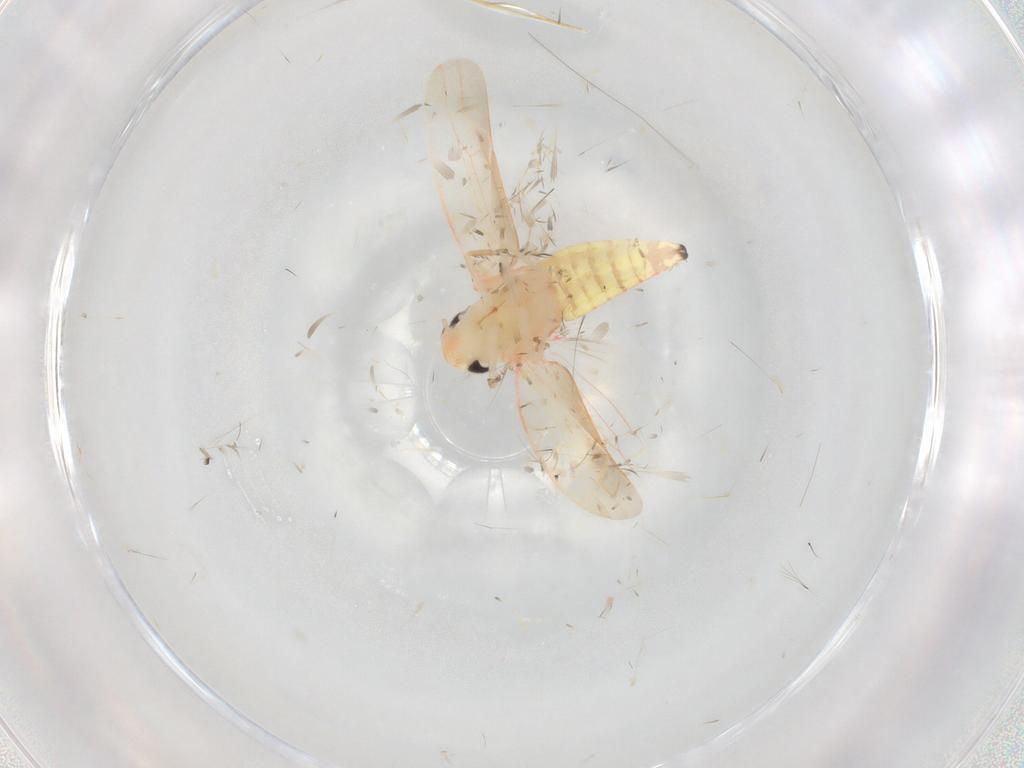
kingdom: Animalia
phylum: Arthropoda
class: Insecta
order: Hemiptera
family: Cicadellidae
